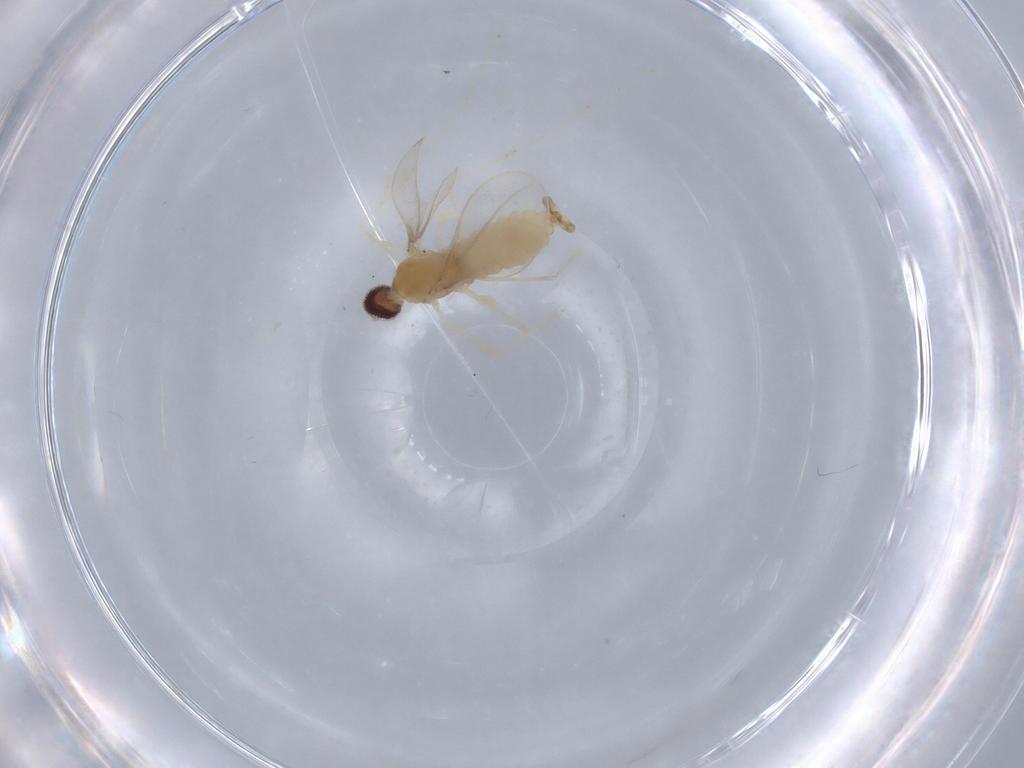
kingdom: Animalia
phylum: Arthropoda
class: Insecta
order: Diptera
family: Cecidomyiidae
